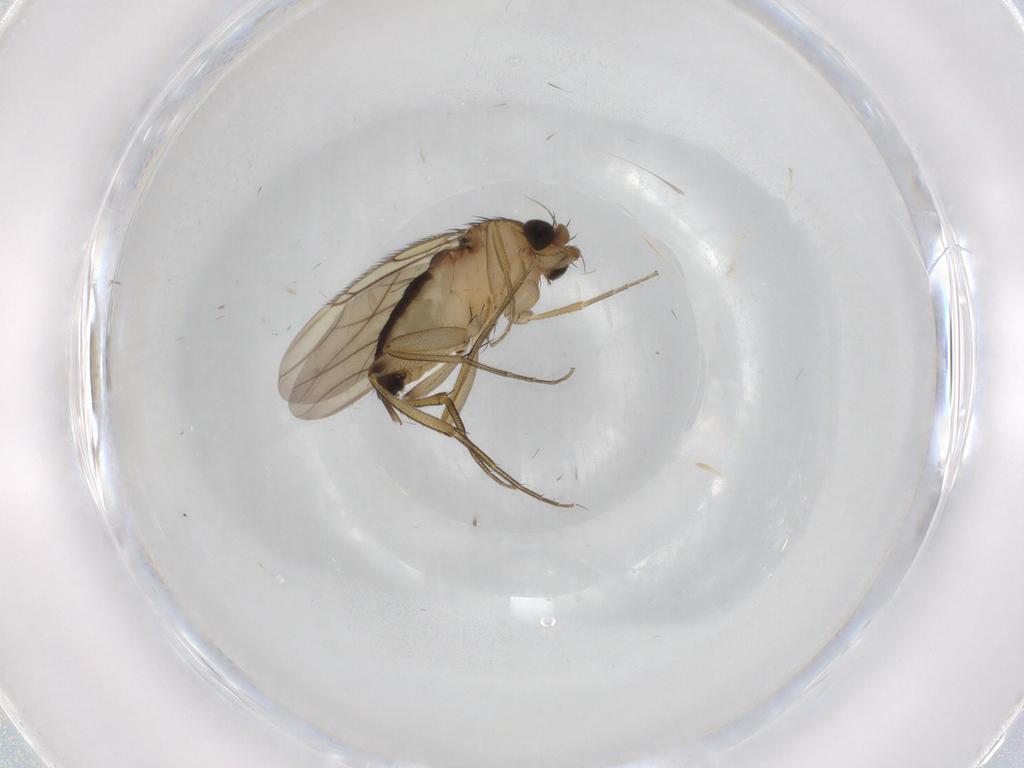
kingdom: Animalia
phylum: Arthropoda
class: Insecta
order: Diptera
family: Phoridae
